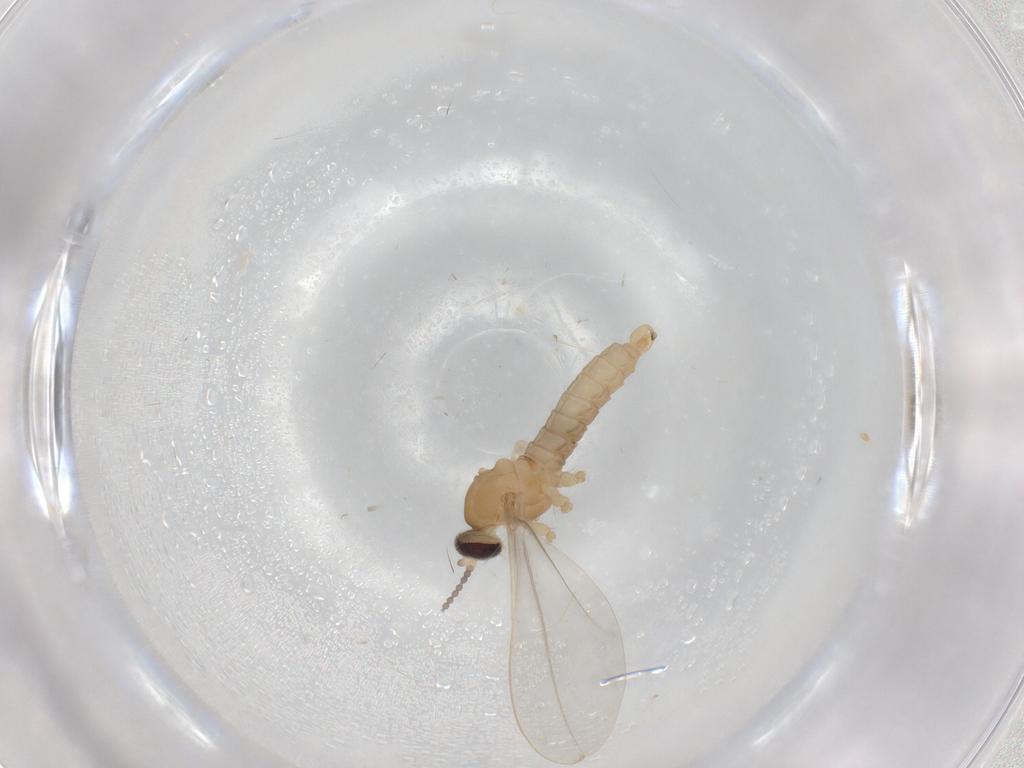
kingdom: Animalia
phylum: Arthropoda
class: Insecta
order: Diptera
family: Cecidomyiidae
